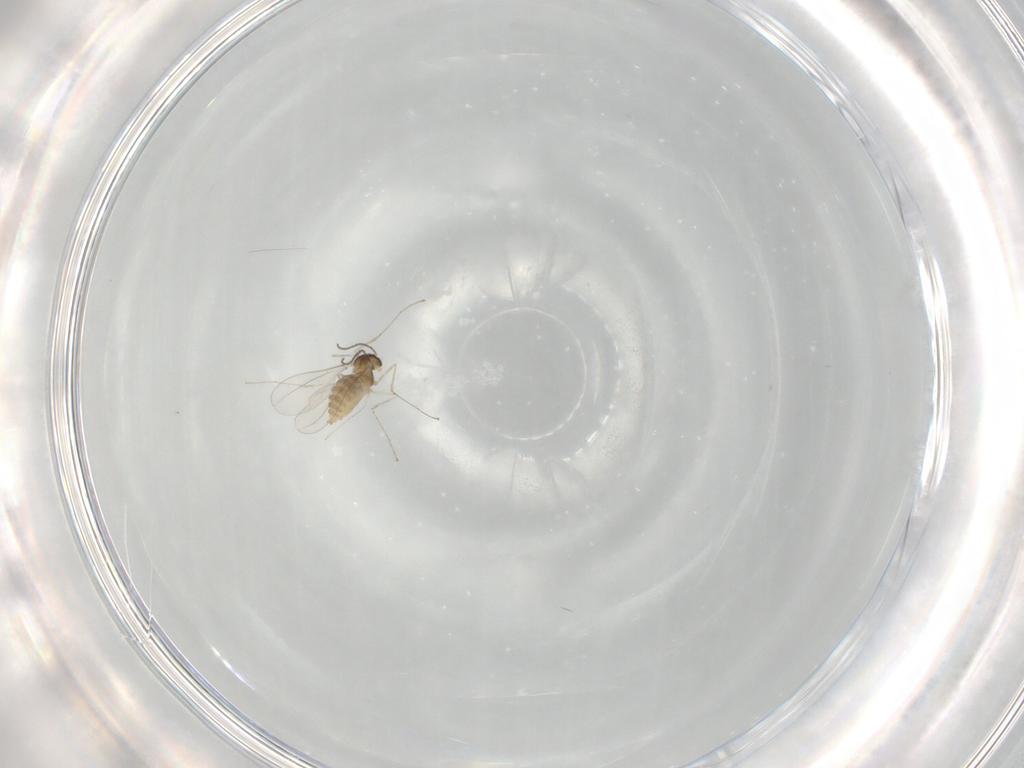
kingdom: Animalia
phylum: Arthropoda
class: Insecta
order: Diptera
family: Cecidomyiidae
